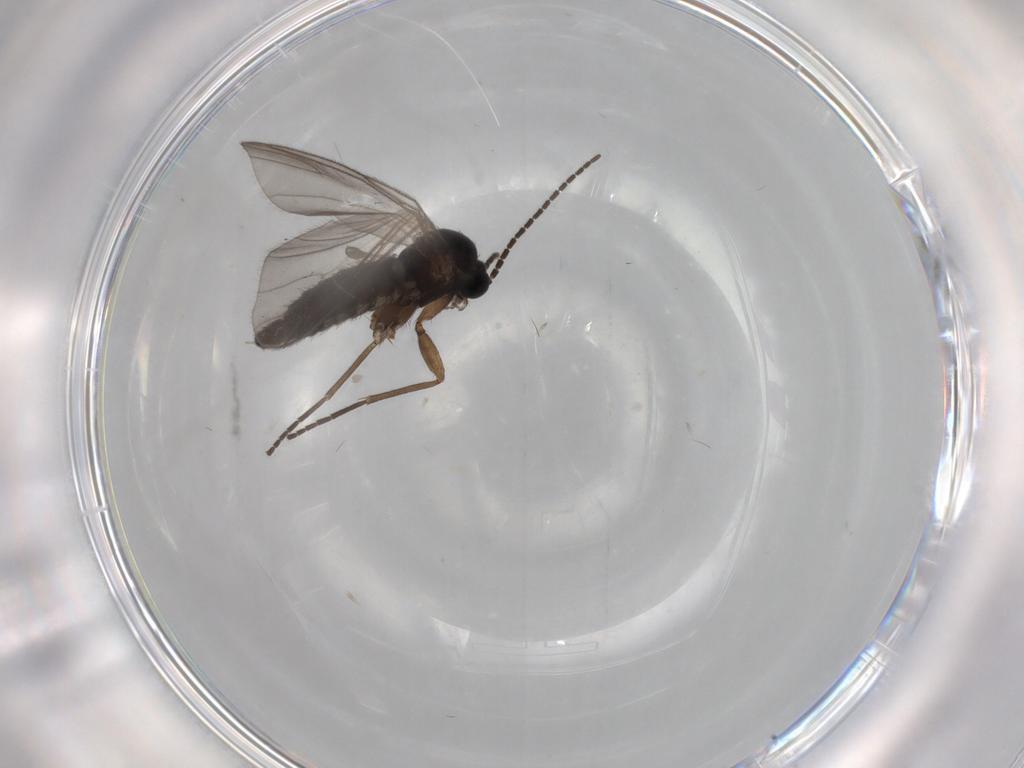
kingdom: Animalia
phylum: Arthropoda
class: Insecta
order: Diptera
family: Sciaridae
